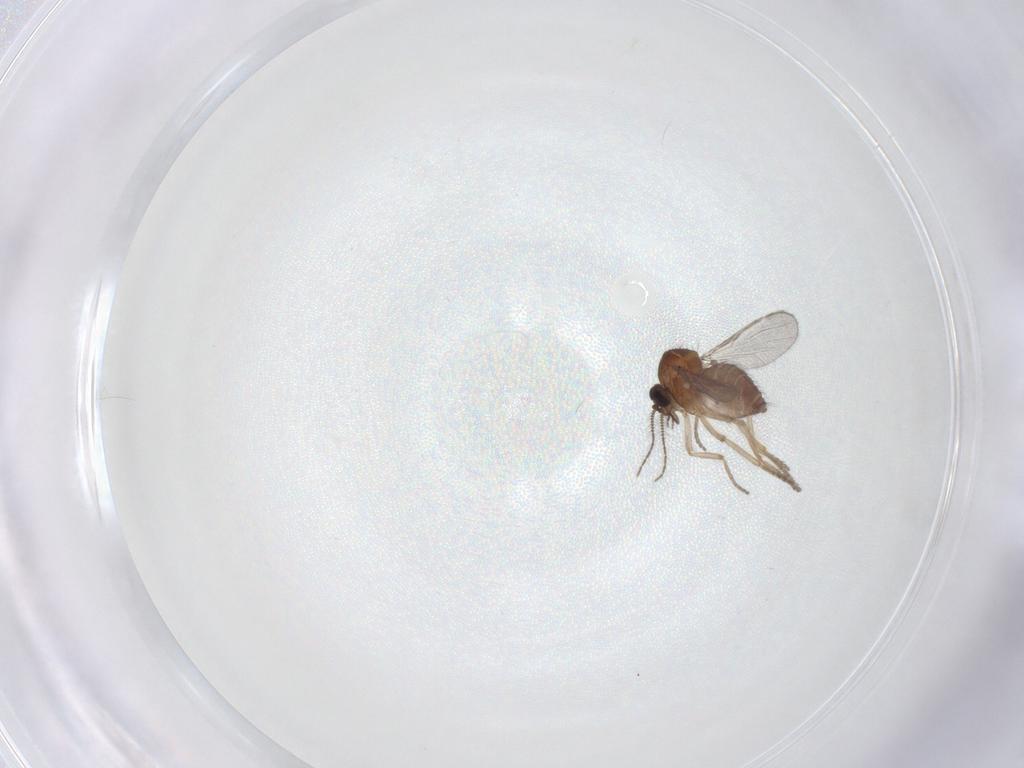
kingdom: Animalia
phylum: Arthropoda
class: Insecta
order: Diptera
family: Ceratopogonidae
